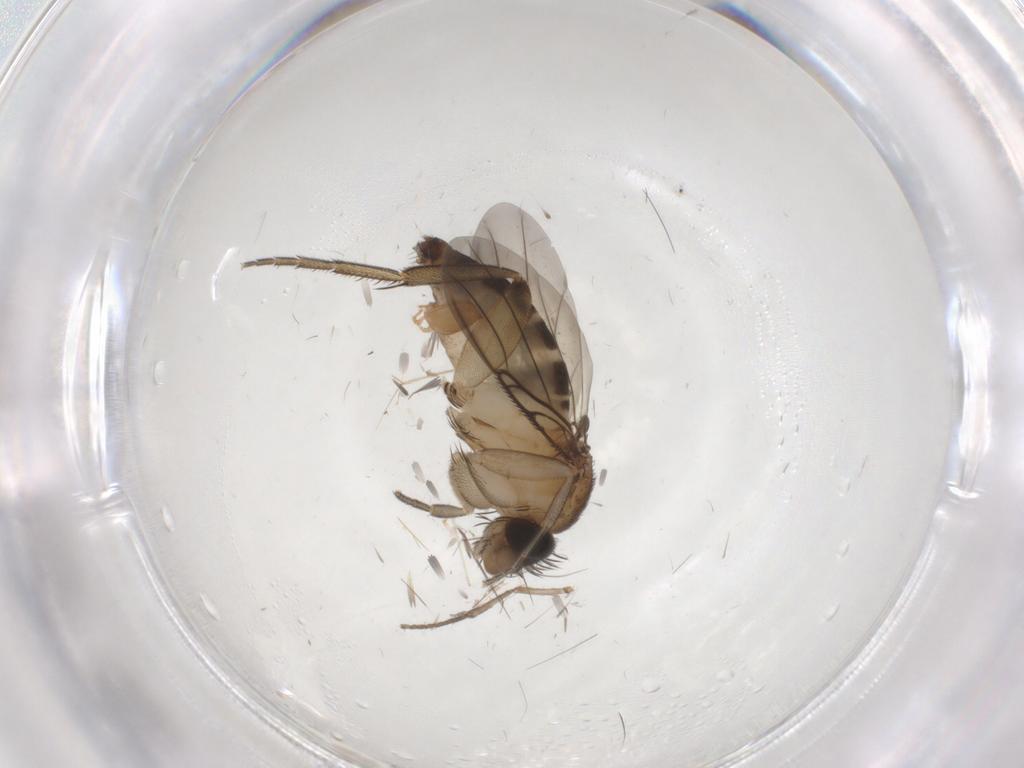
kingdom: Animalia
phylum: Arthropoda
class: Insecta
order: Diptera
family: Phoridae
